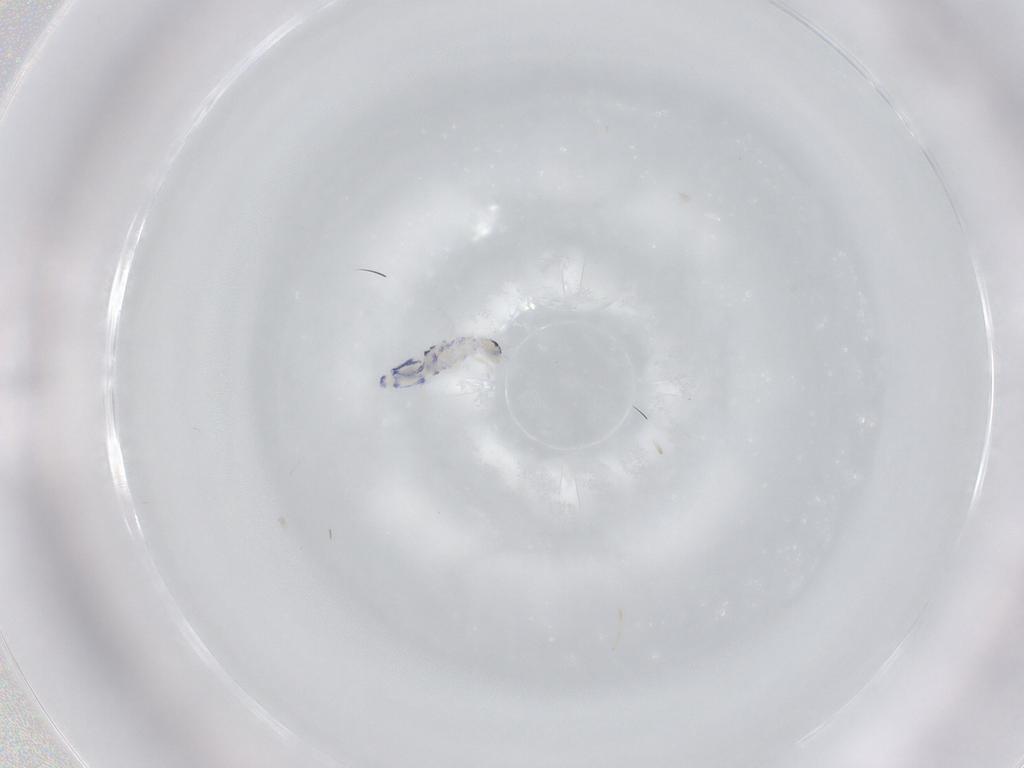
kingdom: Animalia
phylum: Arthropoda
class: Collembola
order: Entomobryomorpha
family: Entomobryidae
